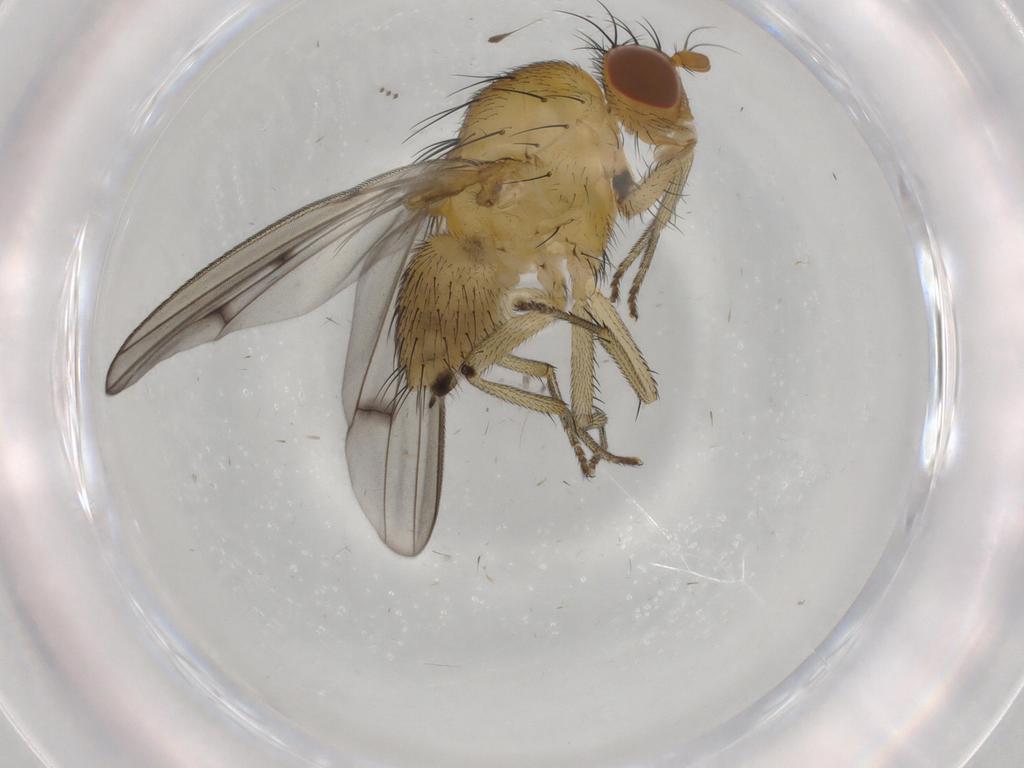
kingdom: Animalia
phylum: Arthropoda
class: Insecta
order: Diptera
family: Lauxaniidae
